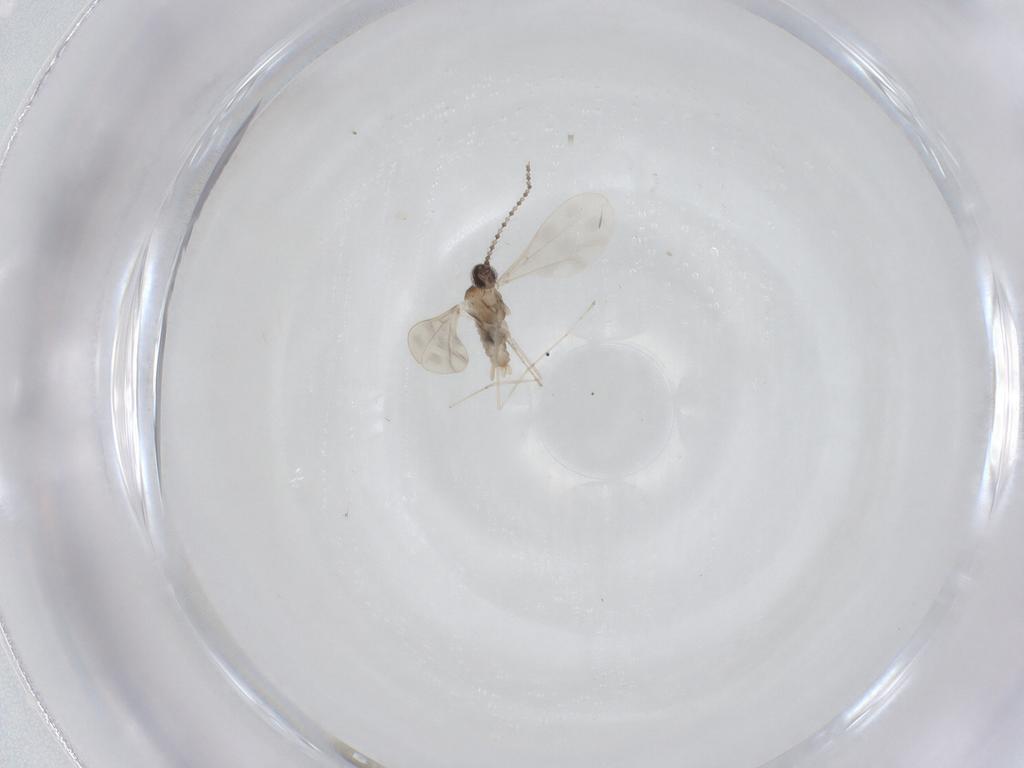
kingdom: Animalia
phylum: Arthropoda
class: Insecta
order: Diptera
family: Cecidomyiidae
